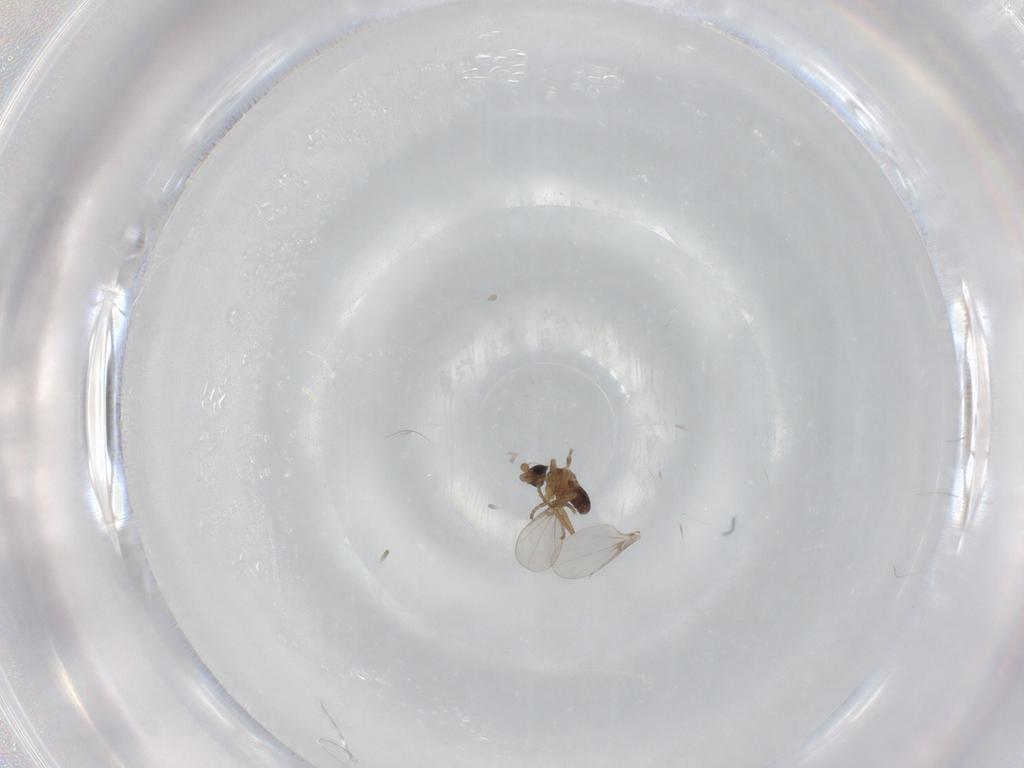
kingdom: Animalia
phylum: Arthropoda
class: Insecta
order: Diptera
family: Phoridae
